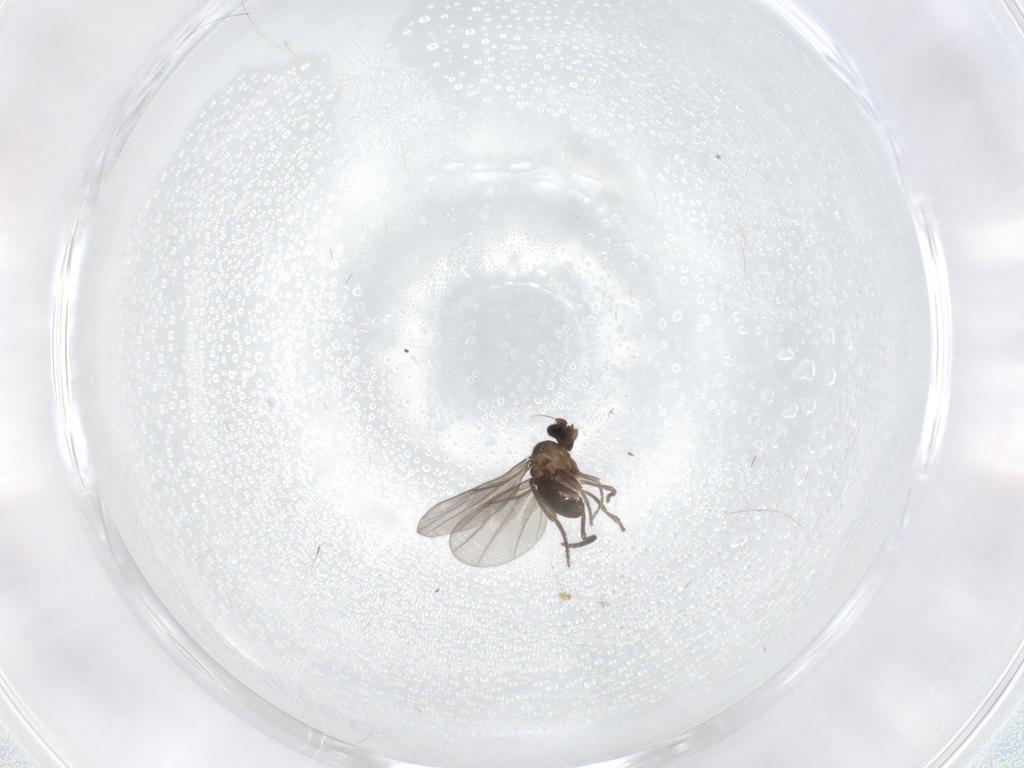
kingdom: Animalia
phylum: Arthropoda
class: Insecta
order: Diptera
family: Phoridae
